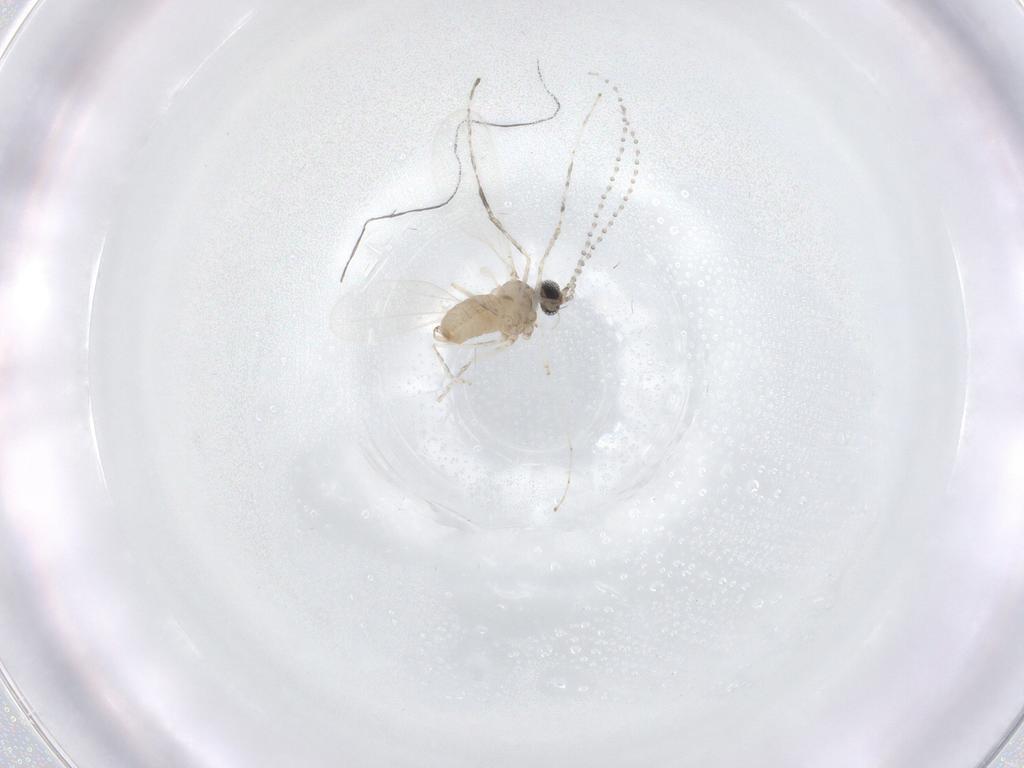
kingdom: Animalia
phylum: Arthropoda
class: Insecta
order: Diptera
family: Cecidomyiidae
